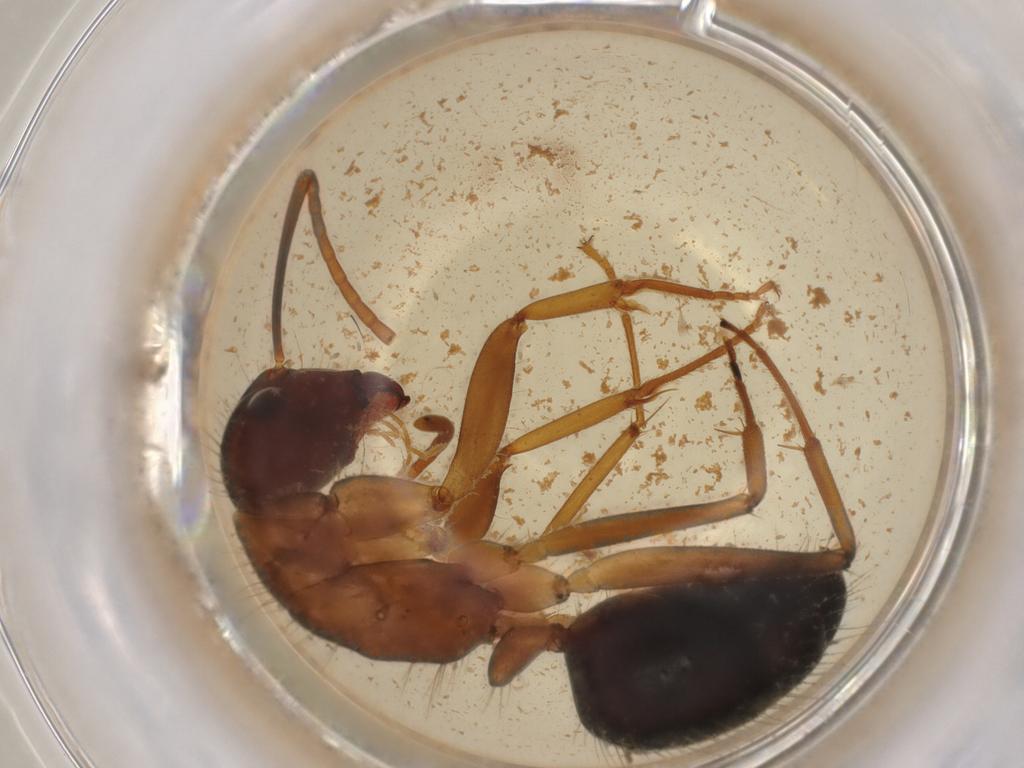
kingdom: Animalia
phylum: Arthropoda
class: Insecta
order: Hymenoptera
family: Formicidae
